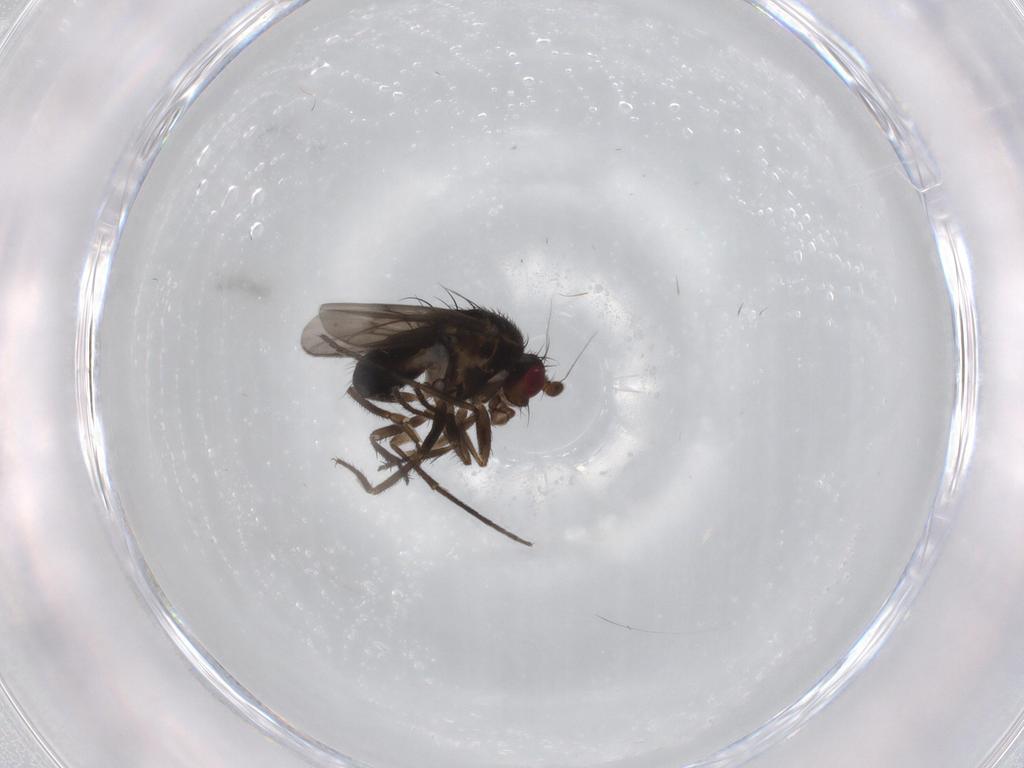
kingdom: Animalia
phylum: Arthropoda
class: Insecta
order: Diptera
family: Sphaeroceridae
